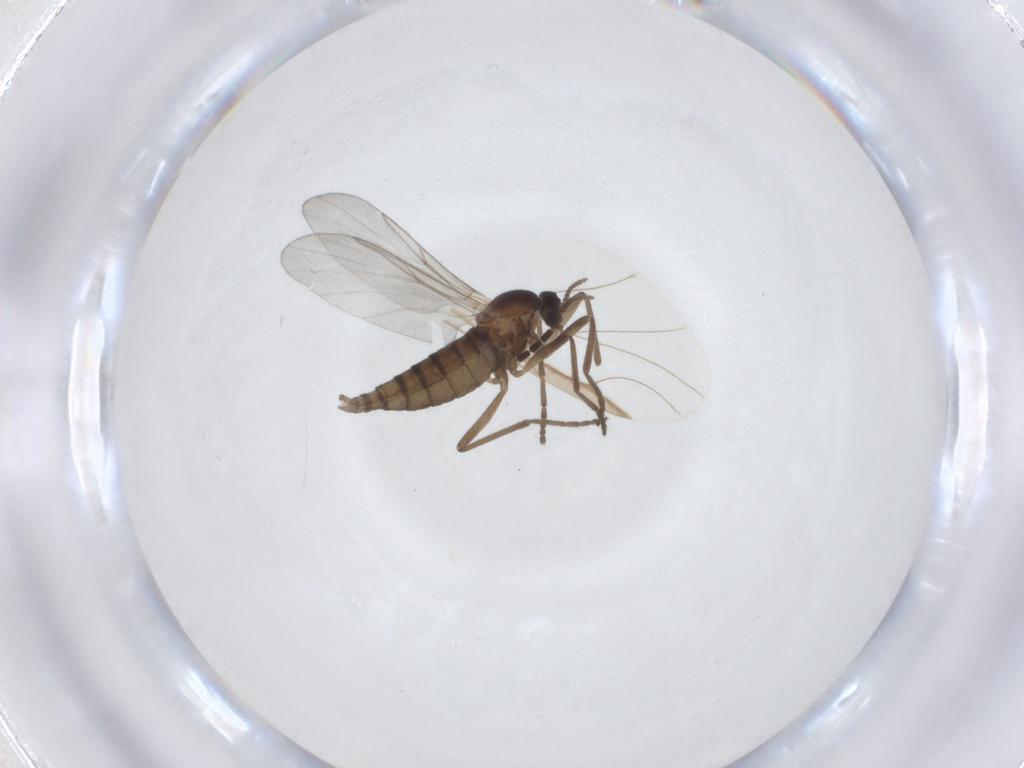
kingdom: Animalia
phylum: Arthropoda
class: Insecta
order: Diptera
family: Cecidomyiidae
